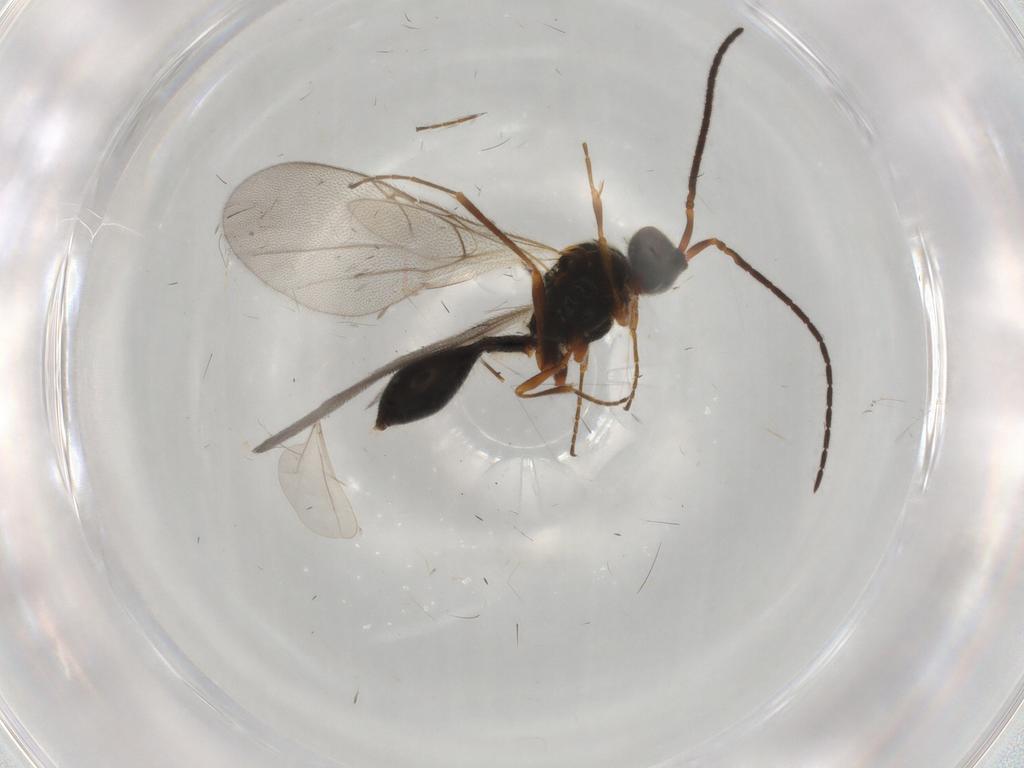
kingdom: Animalia
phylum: Arthropoda
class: Insecta
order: Hymenoptera
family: Diapriidae
